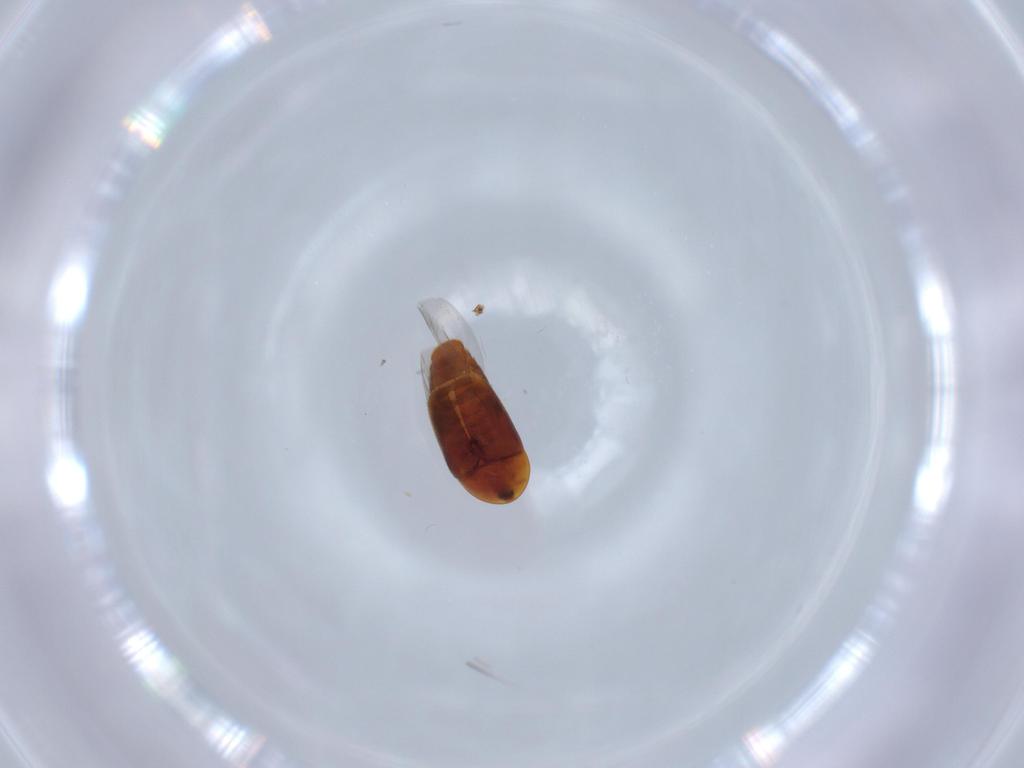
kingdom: Animalia
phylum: Arthropoda
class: Insecta
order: Coleoptera
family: Corylophidae
